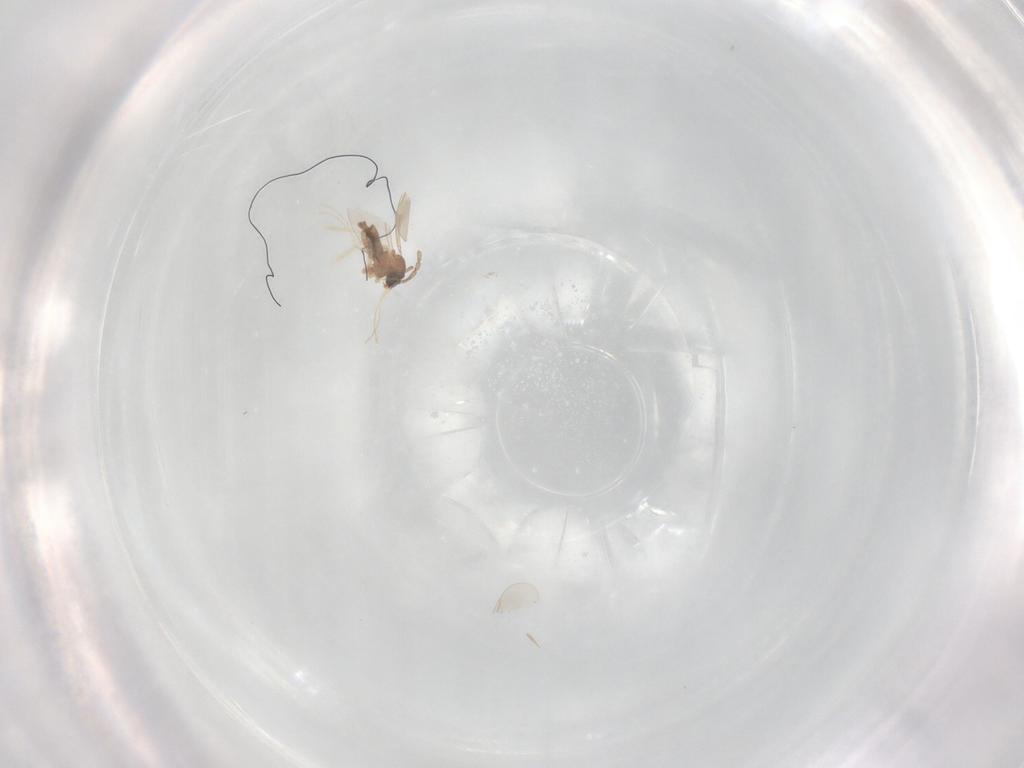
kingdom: Animalia
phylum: Arthropoda
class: Insecta
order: Diptera
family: Cecidomyiidae
